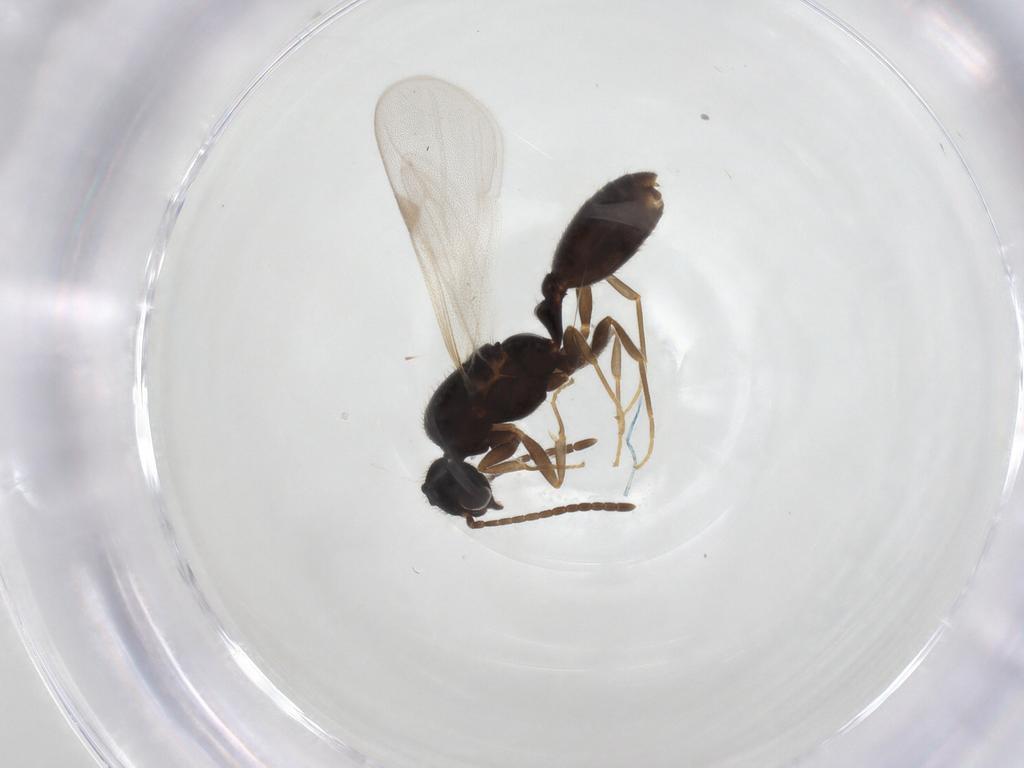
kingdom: Animalia
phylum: Arthropoda
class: Insecta
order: Hymenoptera
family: Formicidae
